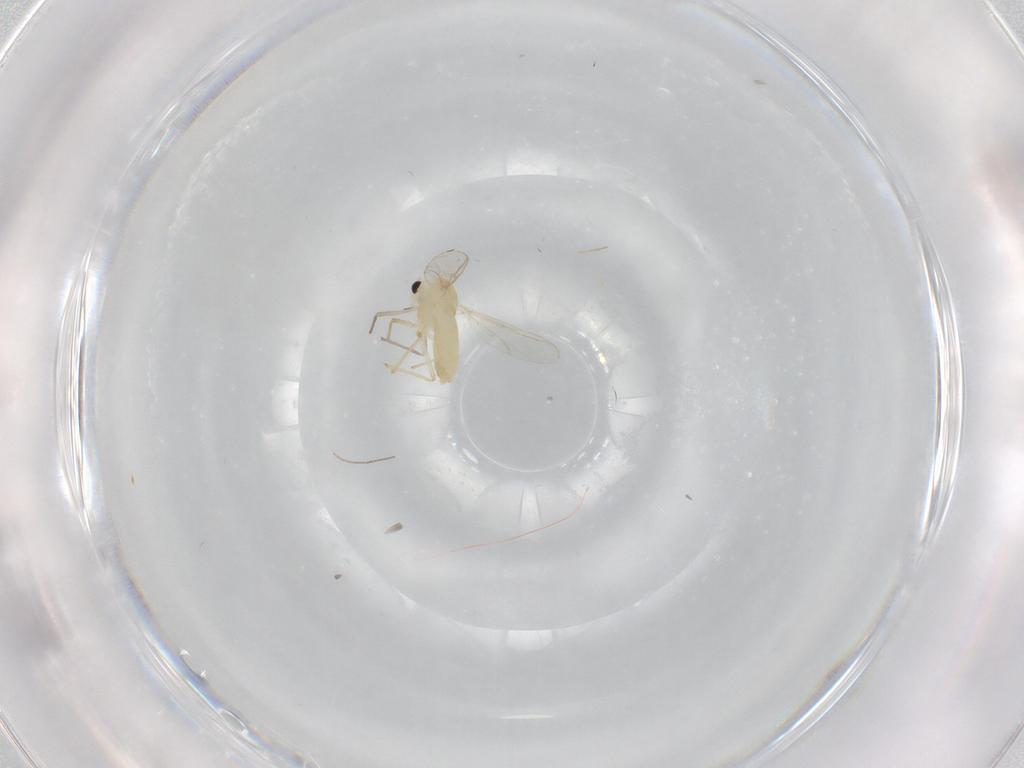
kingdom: Animalia
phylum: Arthropoda
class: Insecta
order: Diptera
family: Chironomidae
